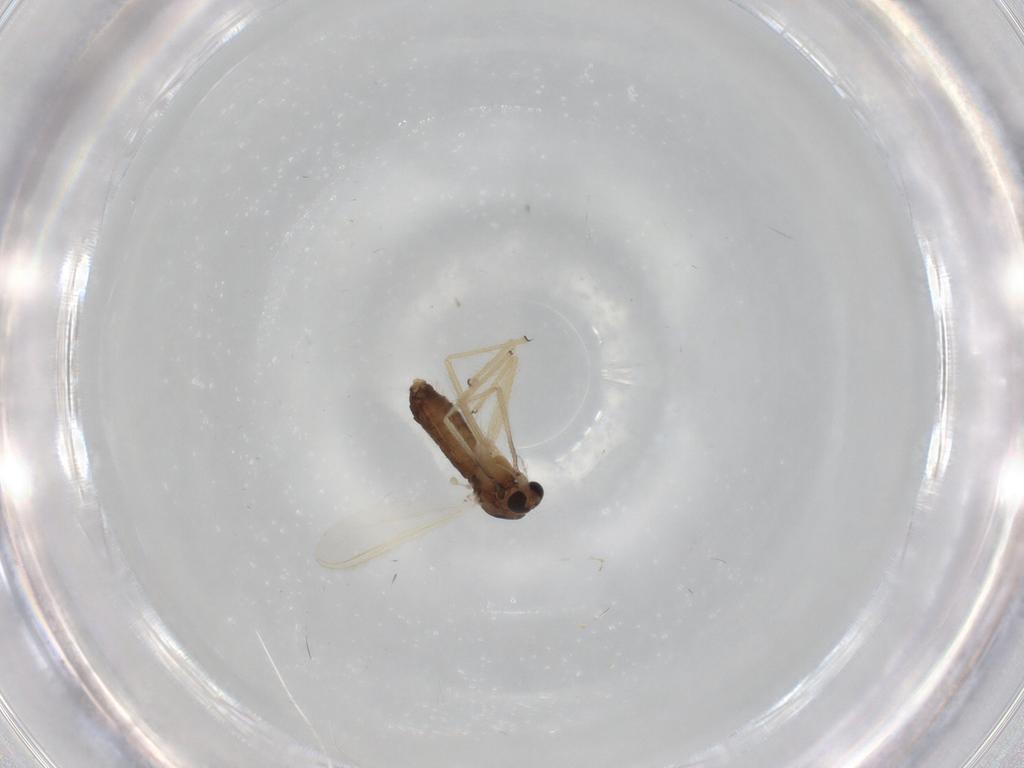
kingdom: Animalia
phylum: Arthropoda
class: Insecta
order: Diptera
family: Chironomidae
